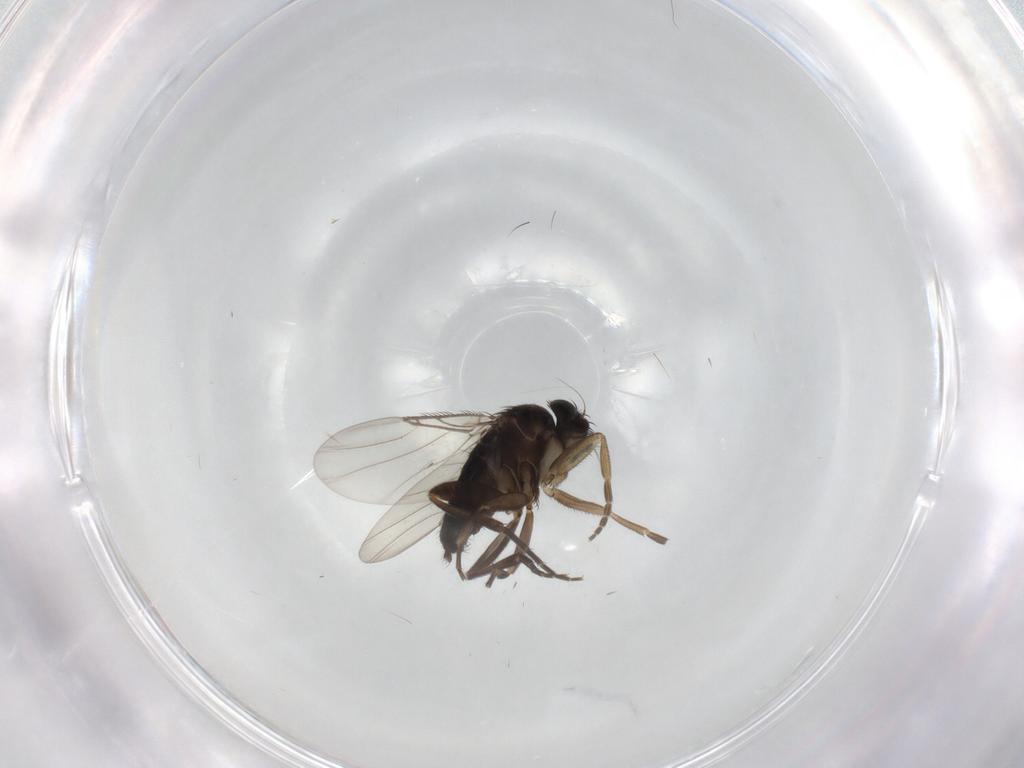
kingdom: Animalia
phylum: Arthropoda
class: Insecta
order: Diptera
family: Phoridae
